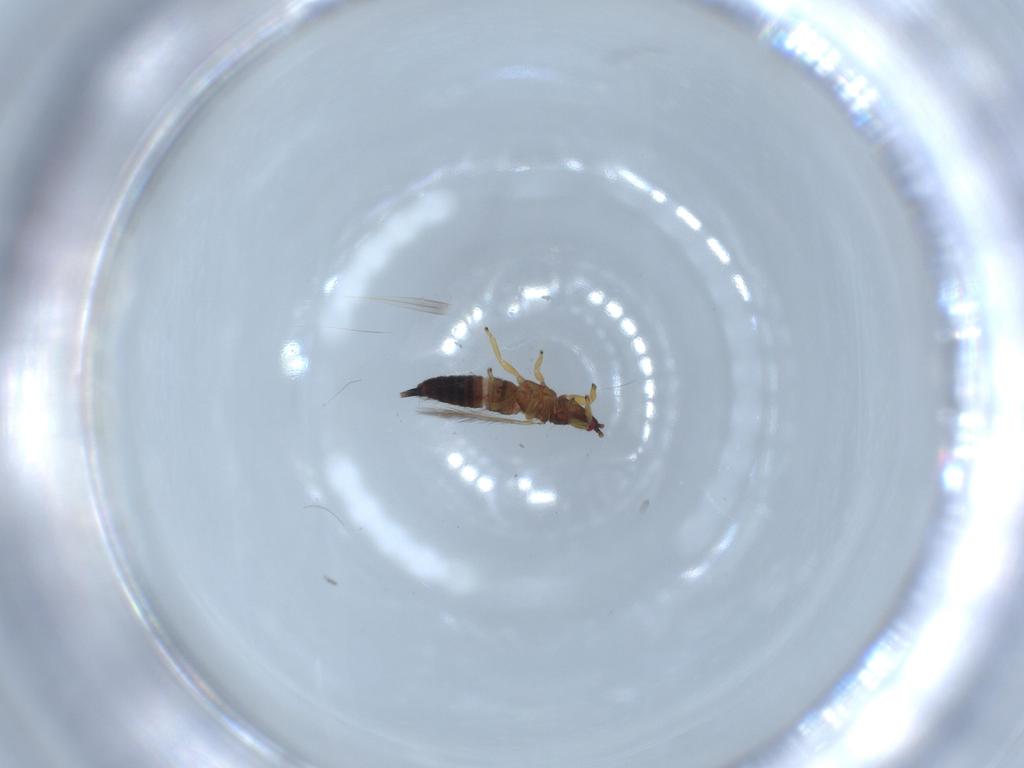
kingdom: Animalia
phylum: Arthropoda
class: Insecta
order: Thysanoptera
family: Phlaeothripidae
